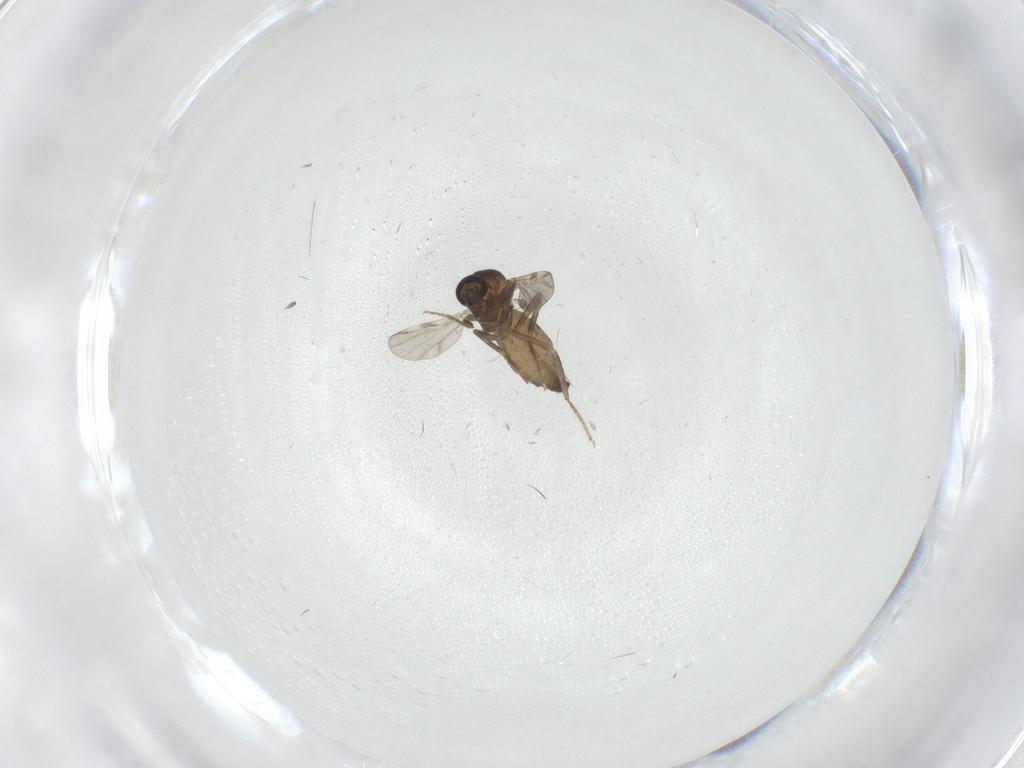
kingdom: Animalia
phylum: Arthropoda
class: Insecta
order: Diptera
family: Ceratopogonidae
